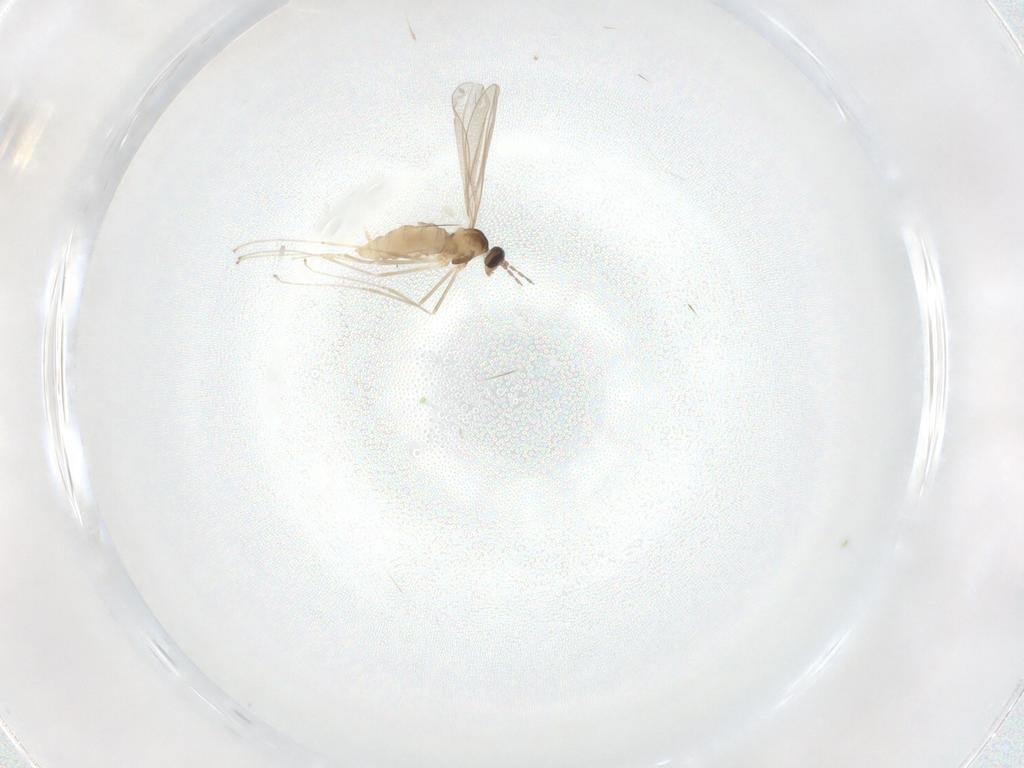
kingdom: Animalia
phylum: Arthropoda
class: Insecta
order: Diptera
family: Cecidomyiidae
